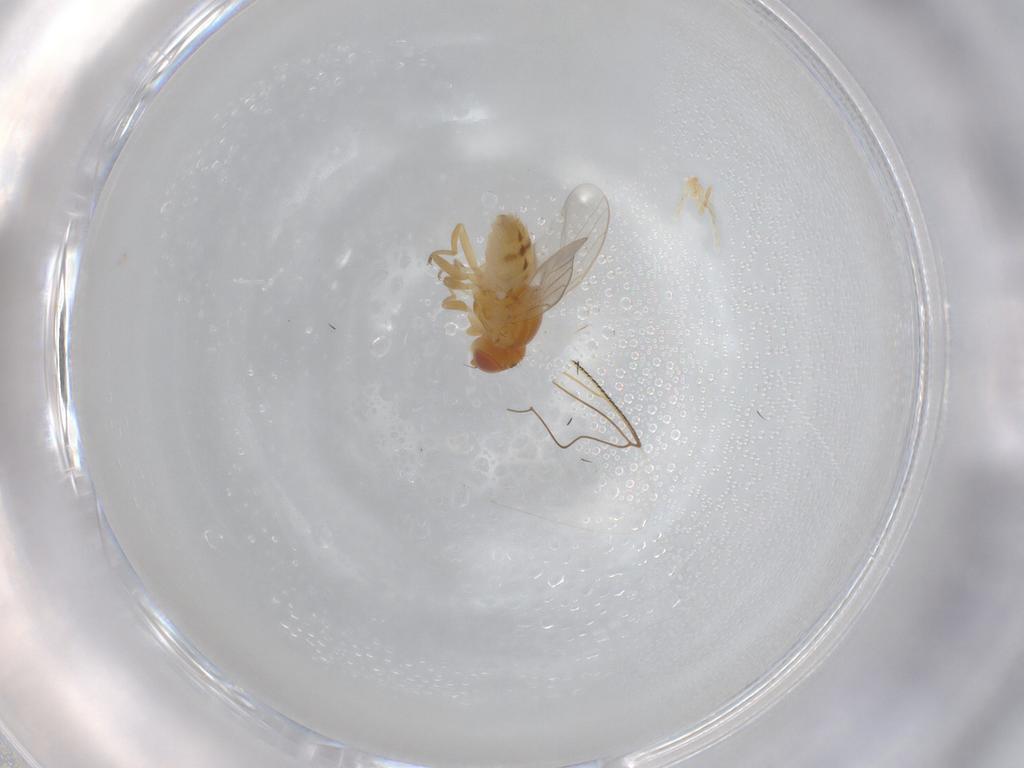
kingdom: Animalia
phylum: Arthropoda
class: Insecta
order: Diptera
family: Chloropidae
